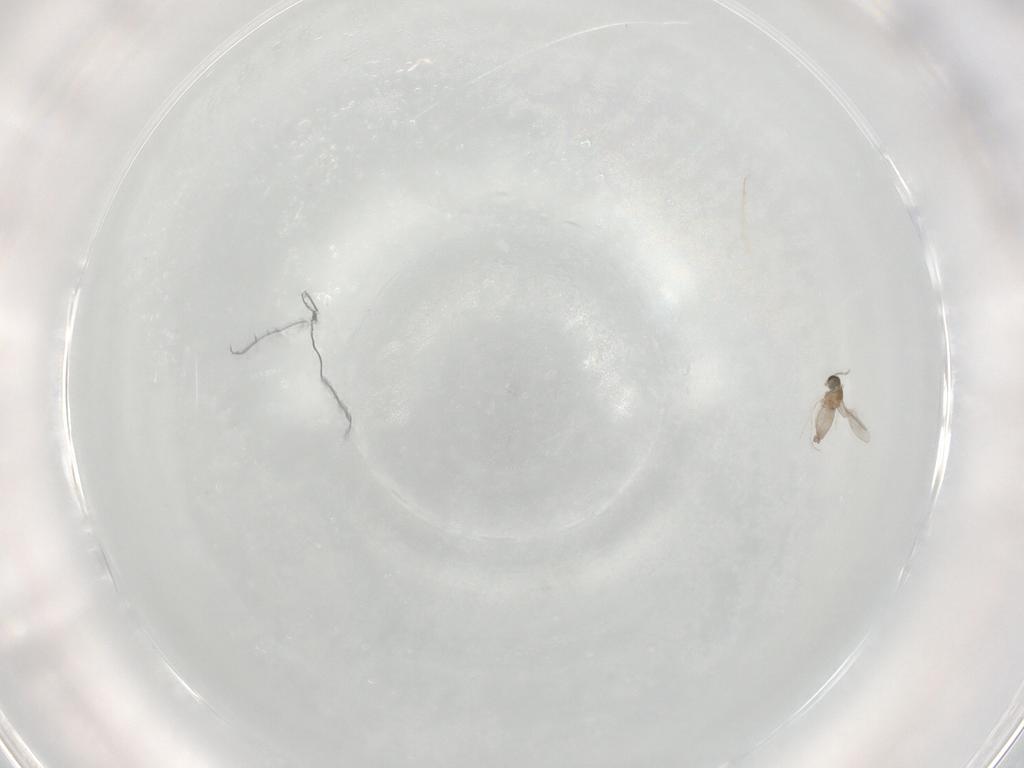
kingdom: Animalia
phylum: Arthropoda
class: Insecta
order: Diptera
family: Chironomidae
